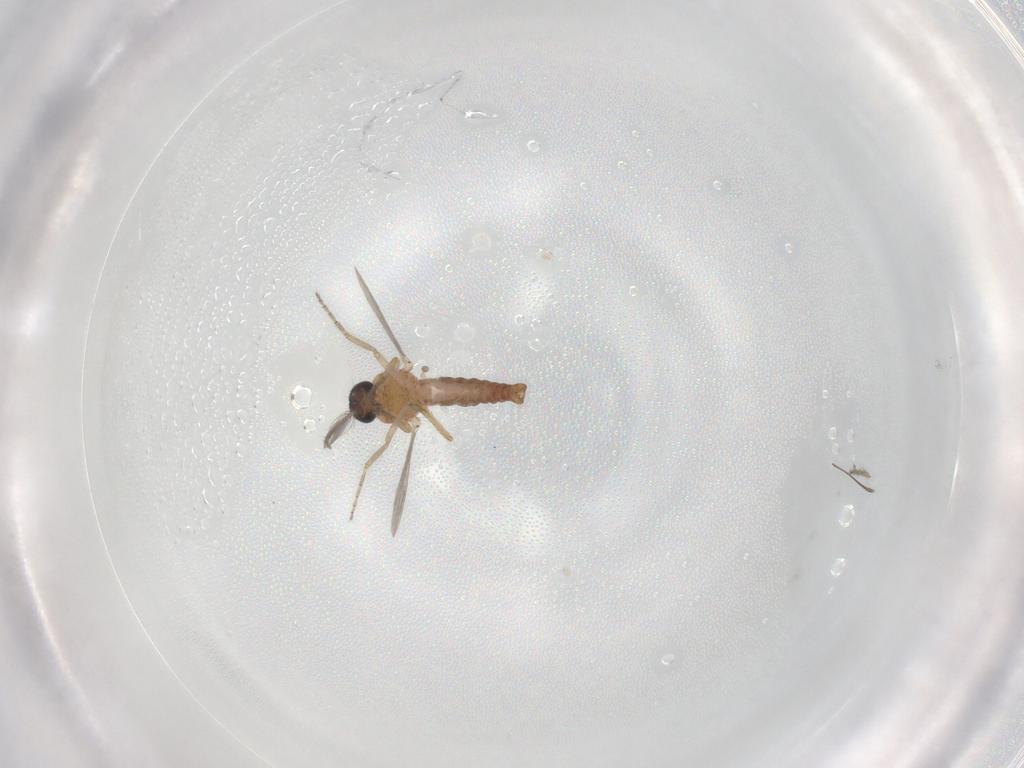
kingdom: Animalia
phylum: Arthropoda
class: Insecta
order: Diptera
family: Ceratopogonidae
